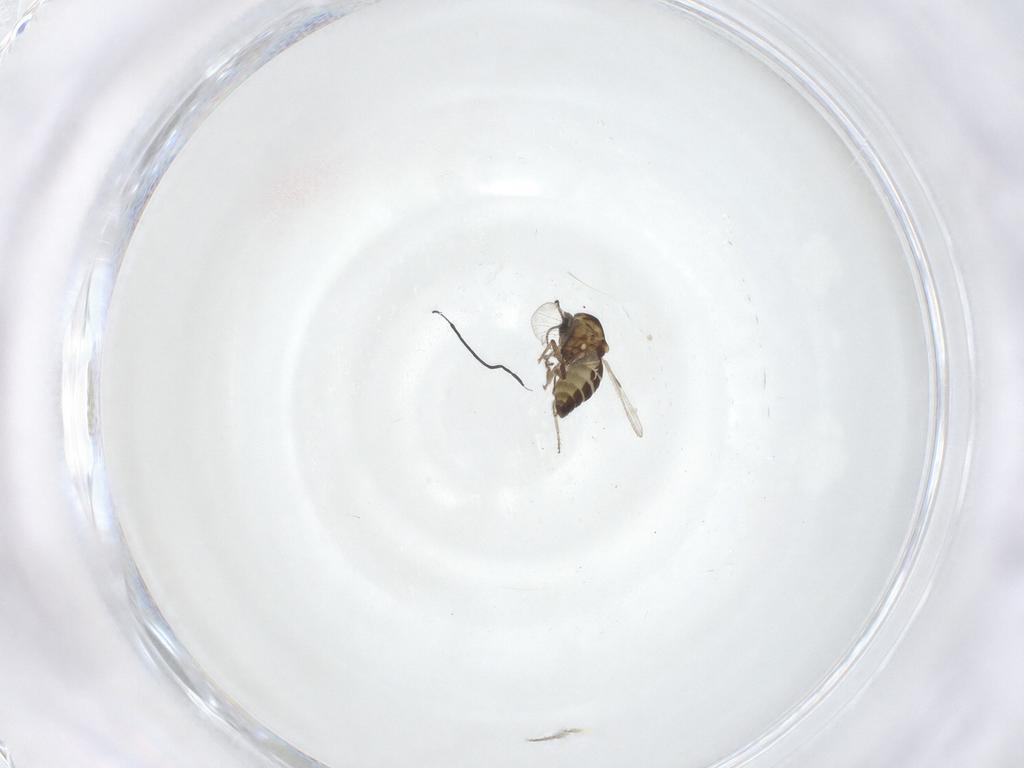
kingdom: Animalia
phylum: Arthropoda
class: Insecta
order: Diptera
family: Ceratopogonidae
